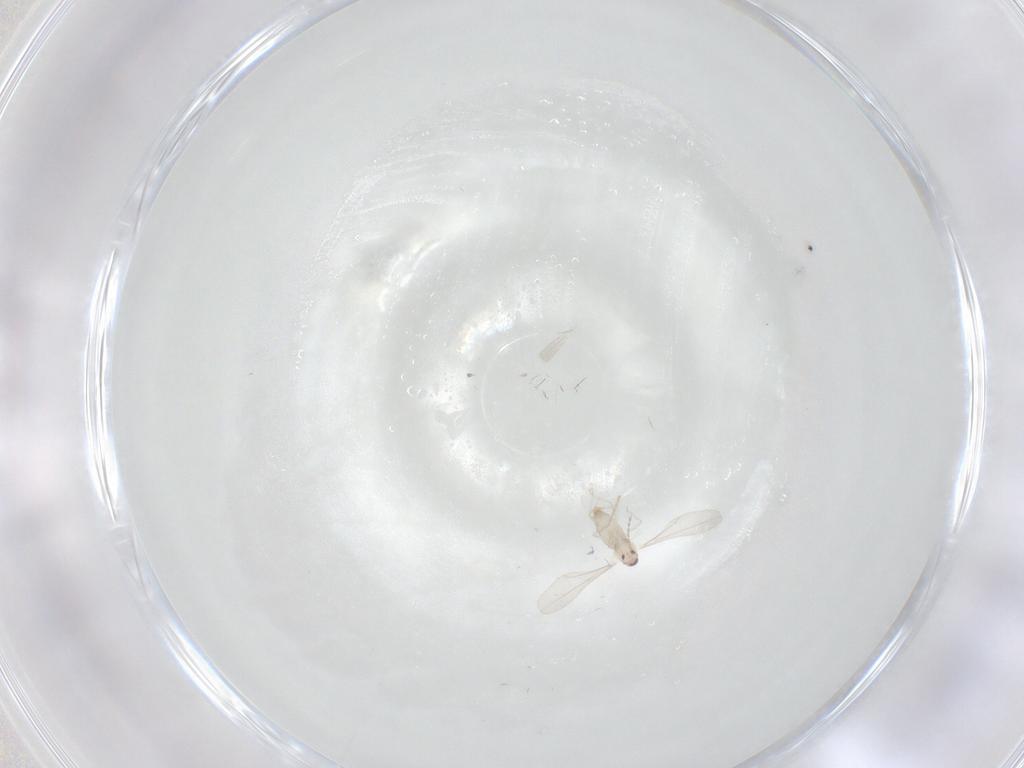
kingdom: Animalia
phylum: Arthropoda
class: Insecta
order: Diptera
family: Cecidomyiidae
